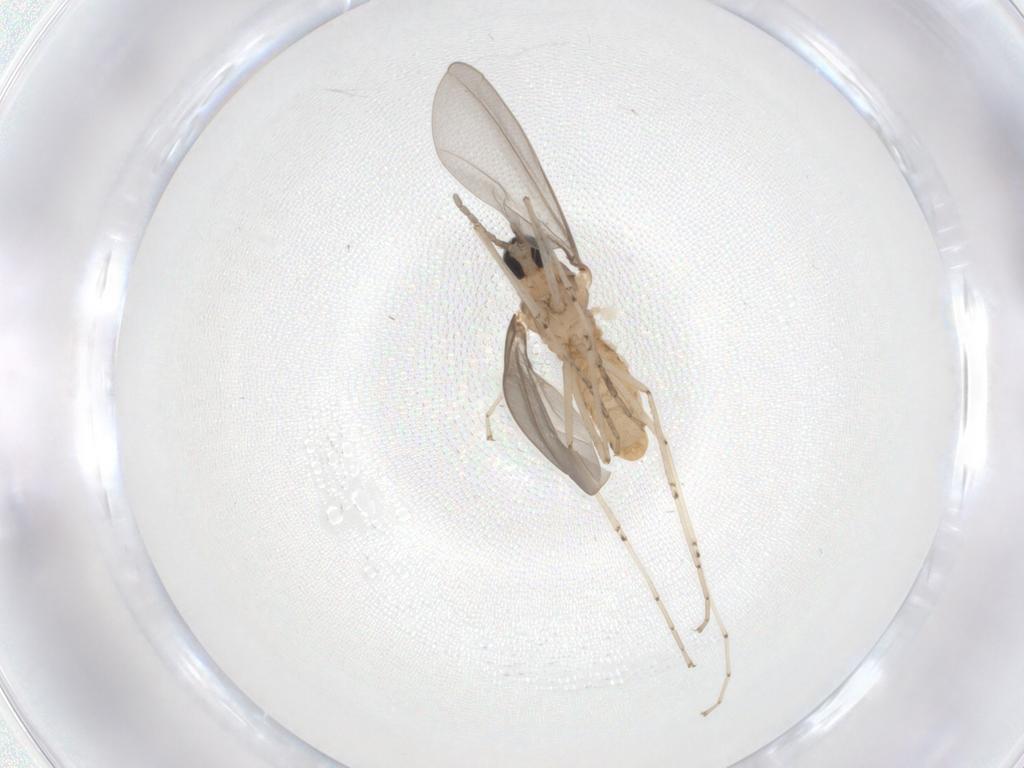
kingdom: Animalia
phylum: Arthropoda
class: Insecta
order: Diptera
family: Cecidomyiidae
